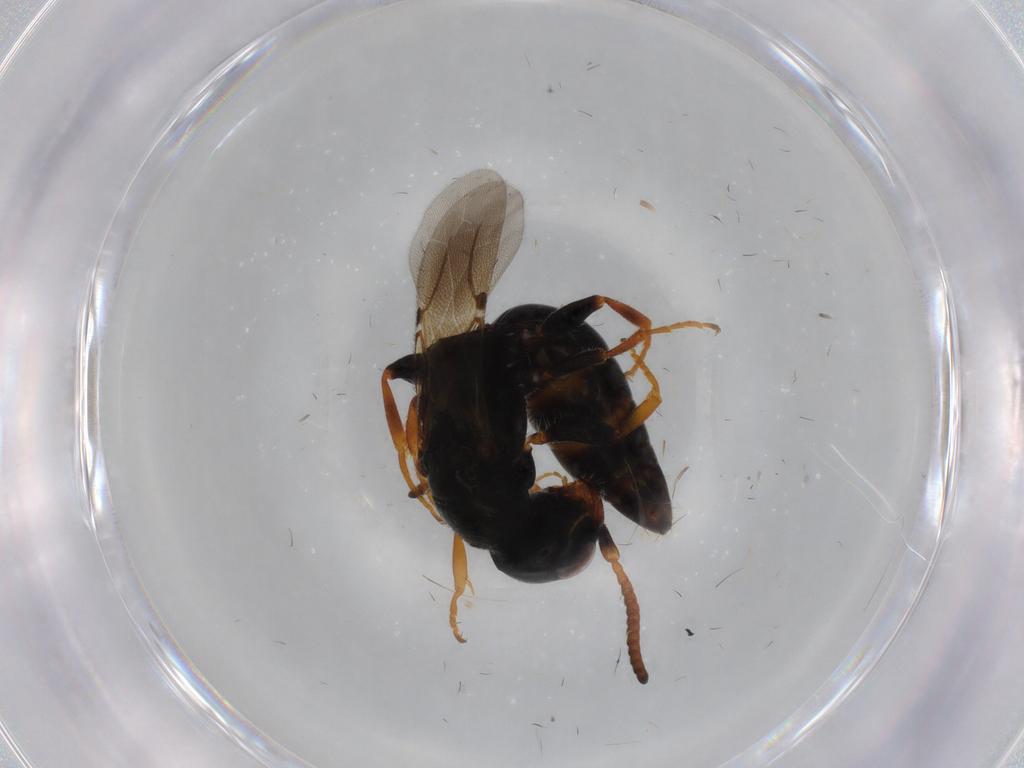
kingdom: Animalia
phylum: Arthropoda
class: Insecta
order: Hymenoptera
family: Bethylidae
